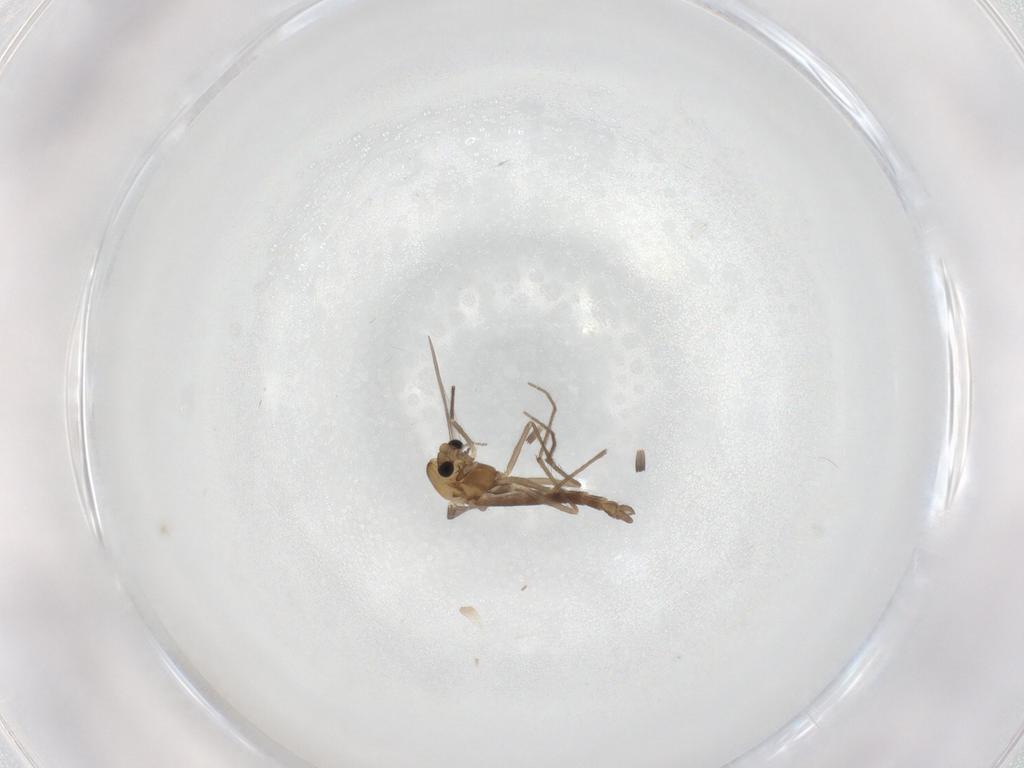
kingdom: Animalia
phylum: Arthropoda
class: Insecta
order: Diptera
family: Chironomidae
